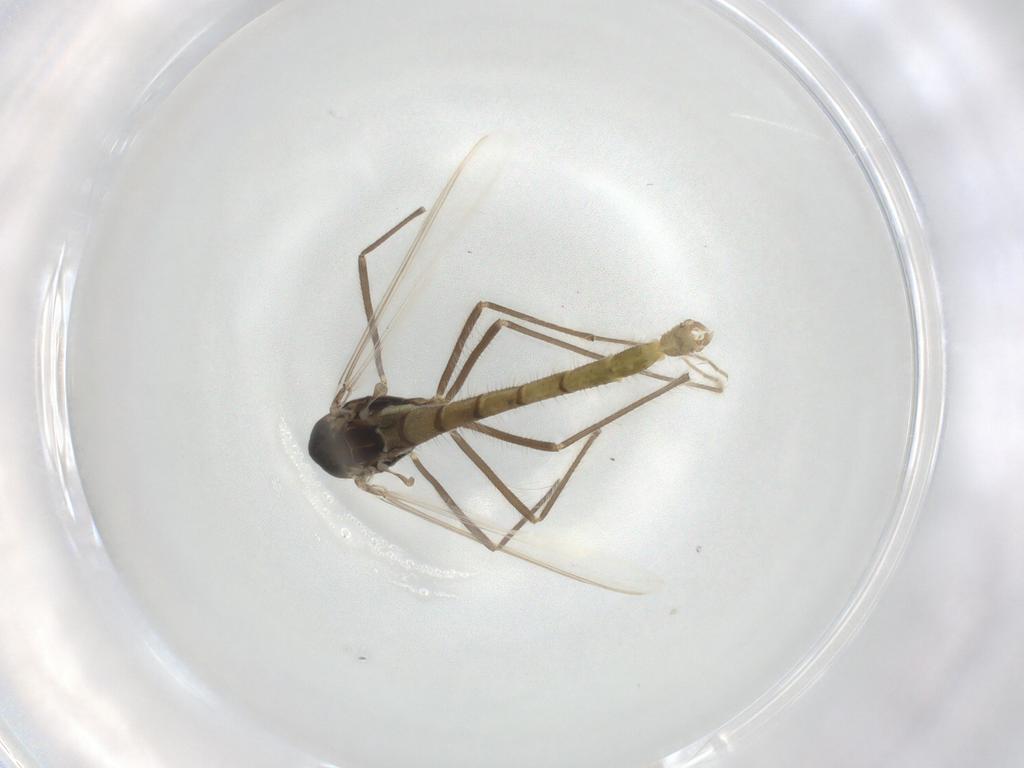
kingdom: Animalia
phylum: Arthropoda
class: Insecta
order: Diptera
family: Chironomidae
